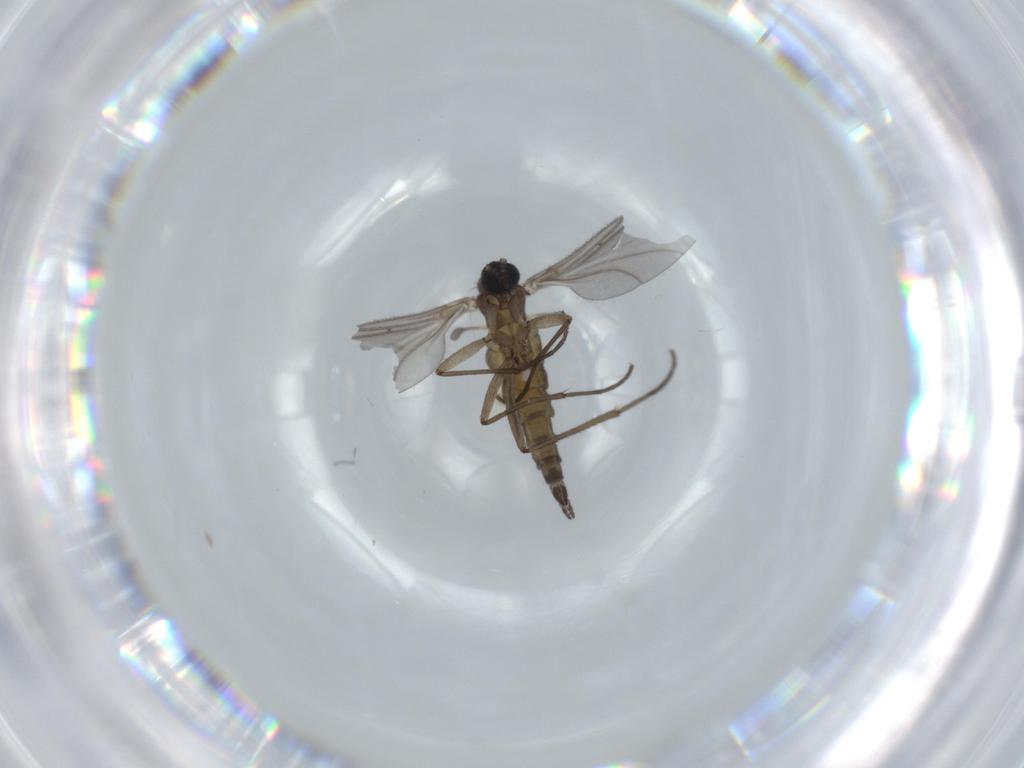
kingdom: Animalia
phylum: Arthropoda
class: Insecta
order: Diptera
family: Sciaridae
